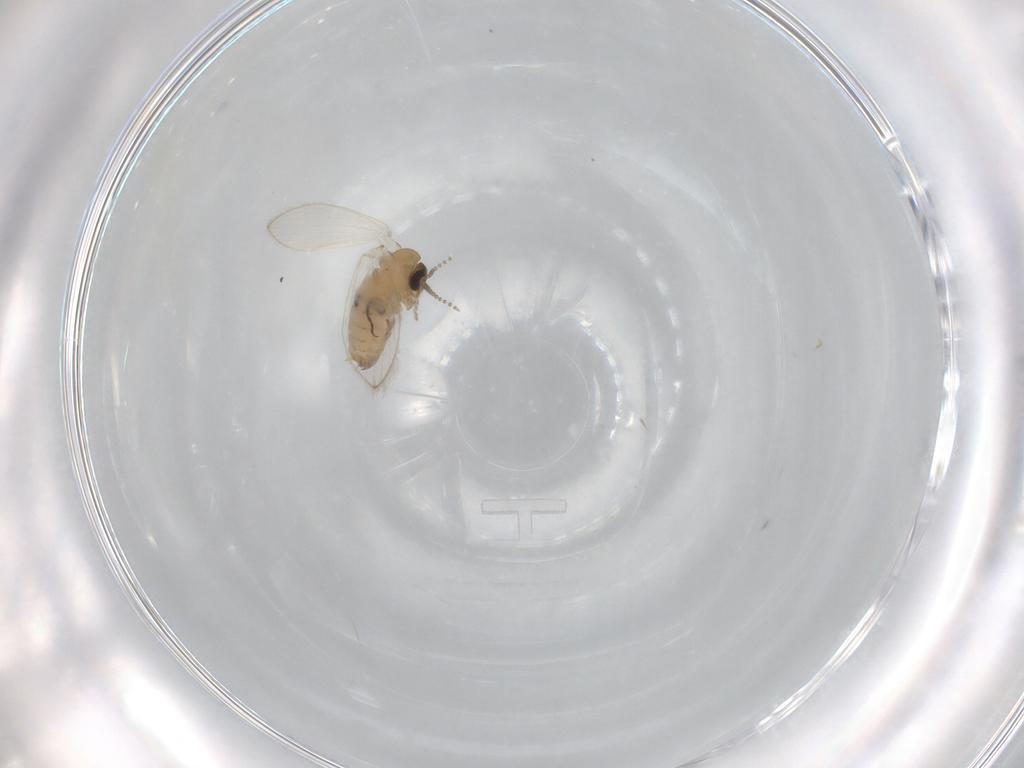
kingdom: Animalia
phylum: Arthropoda
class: Insecta
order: Diptera
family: Psychodidae
